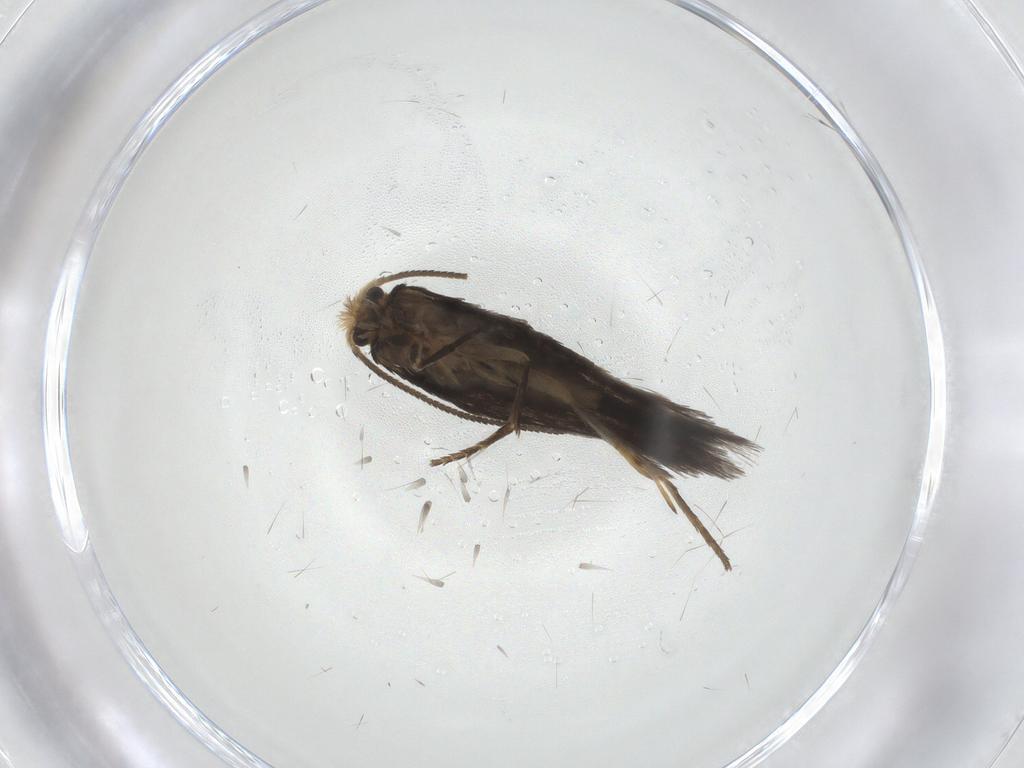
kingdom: Animalia
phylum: Arthropoda
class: Insecta
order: Lepidoptera
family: Nepticulidae
